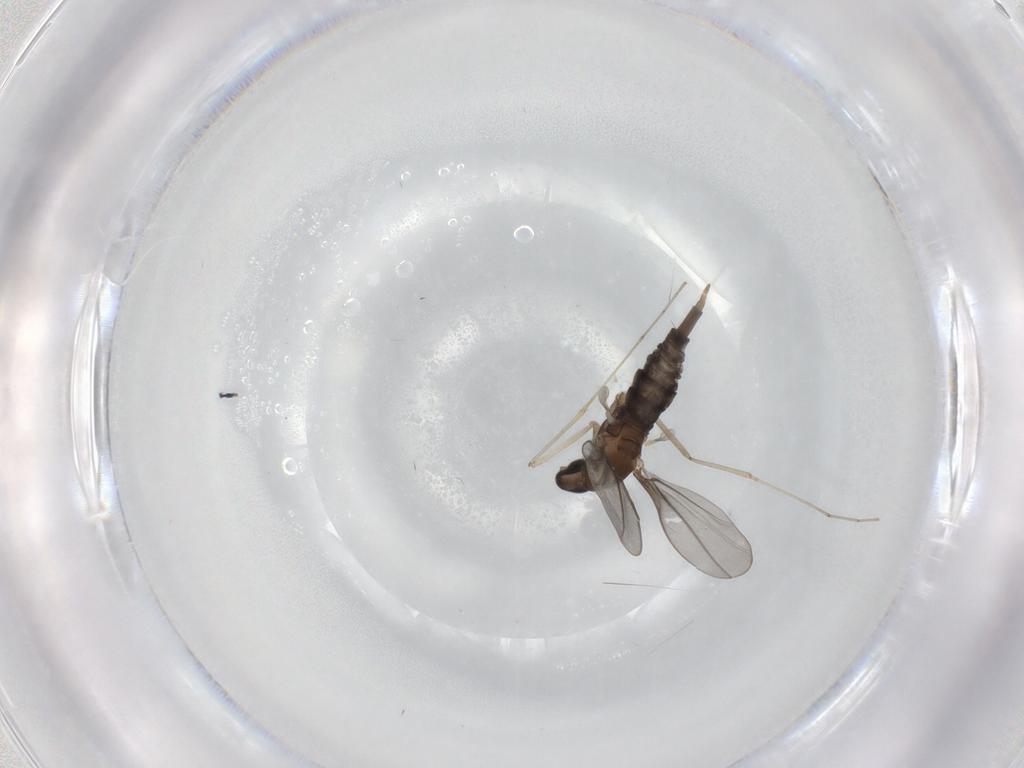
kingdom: Animalia
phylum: Arthropoda
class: Insecta
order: Diptera
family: Cecidomyiidae
